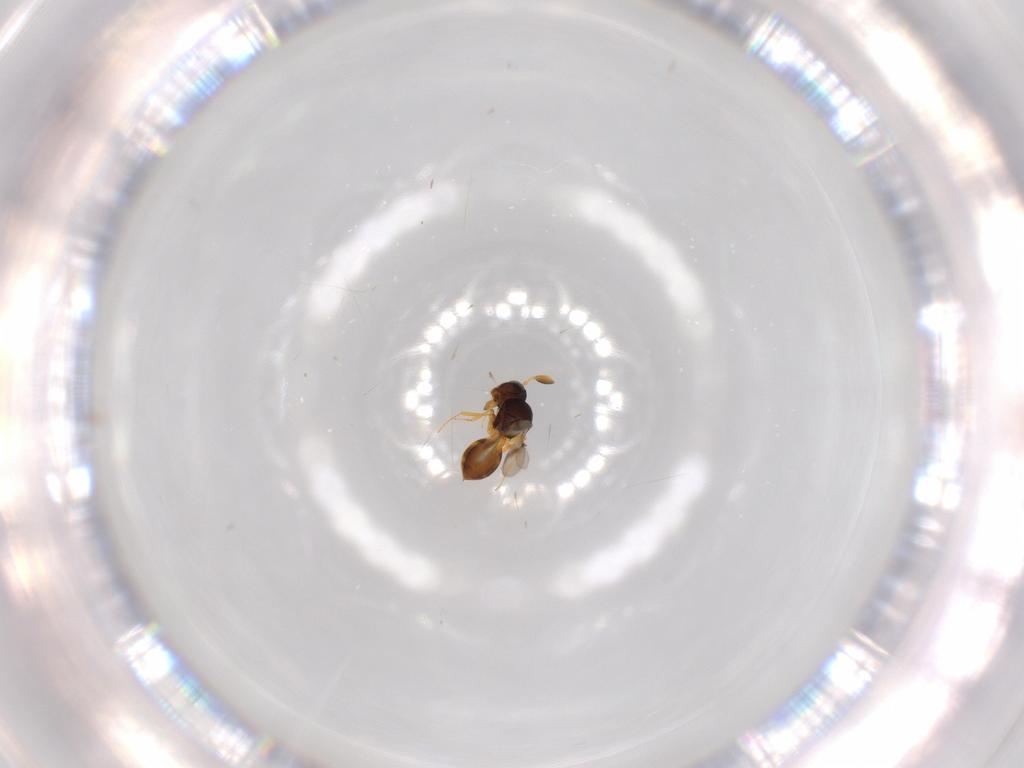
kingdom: Animalia
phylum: Arthropoda
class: Insecta
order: Hymenoptera
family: Scelionidae
